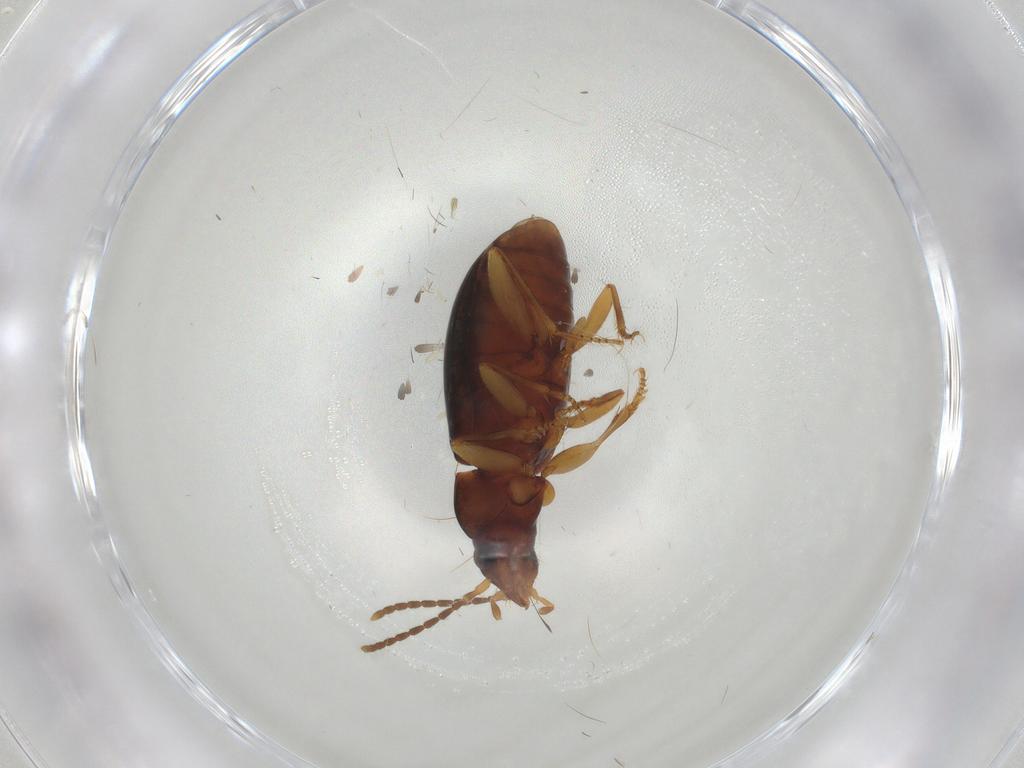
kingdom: Animalia
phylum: Arthropoda
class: Insecta
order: Coleoptera
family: Carabidae
